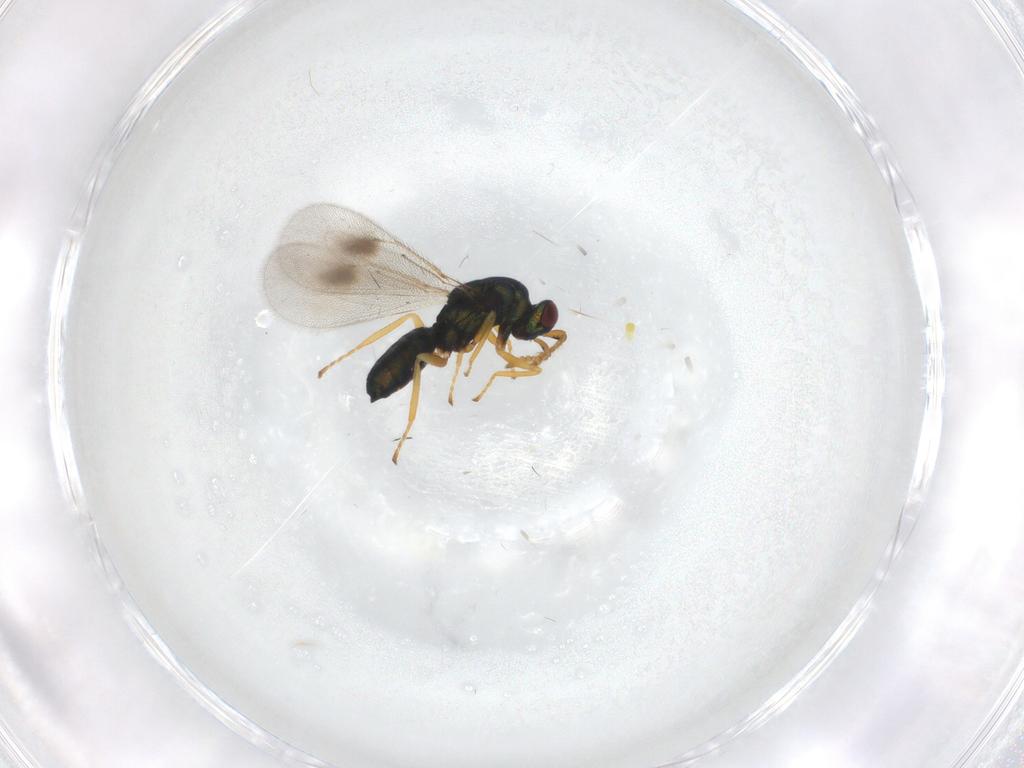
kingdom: Animalia
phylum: Arthropoda
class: Insecta
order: Hymenoptera
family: Eulophidae
